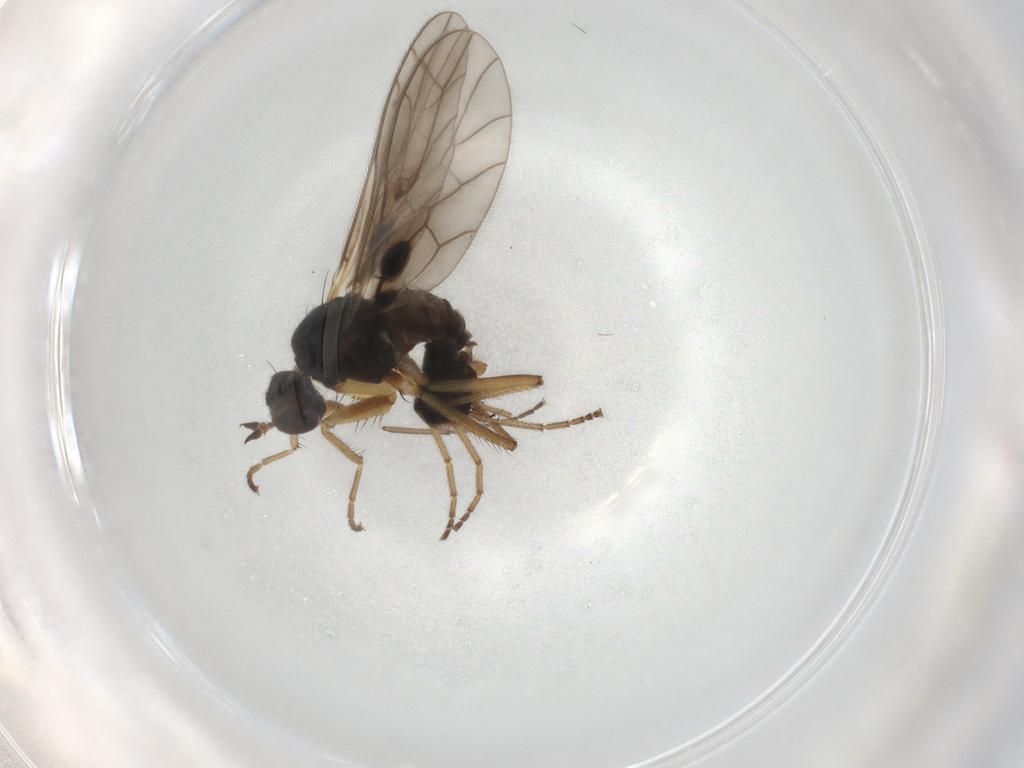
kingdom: Animalia
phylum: Arthropoda
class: Insecta
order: Diptera
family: Empididae
